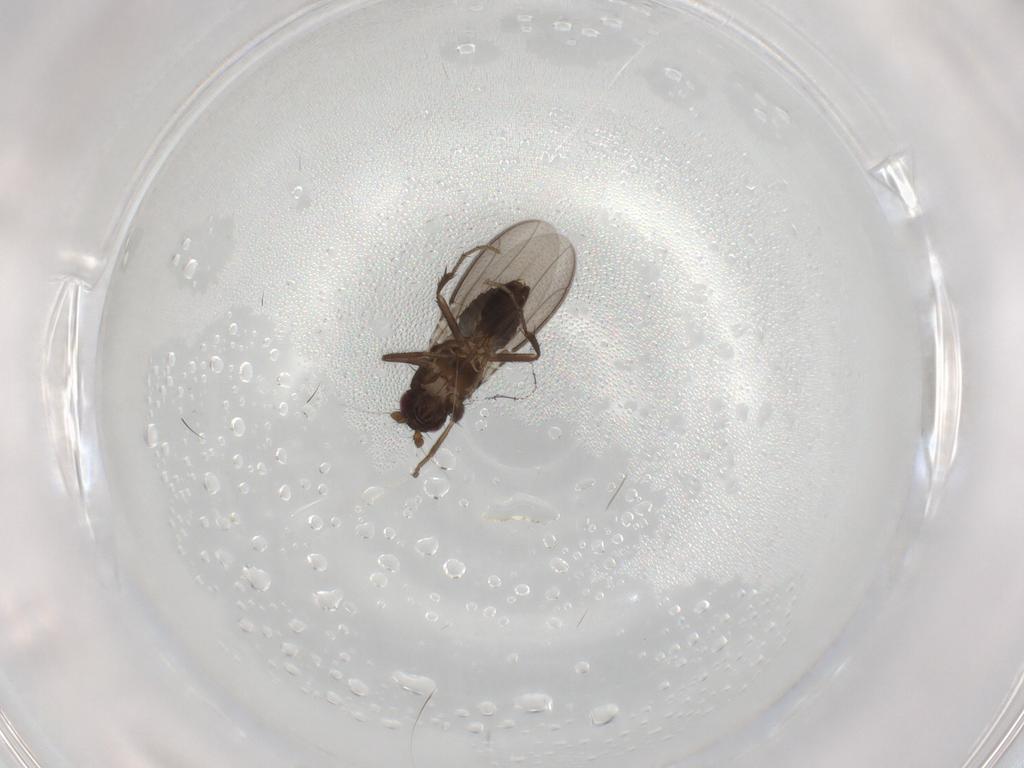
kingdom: Animalia
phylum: Arthropoda
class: Insecta
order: Diptera
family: Sphaeroceridae
